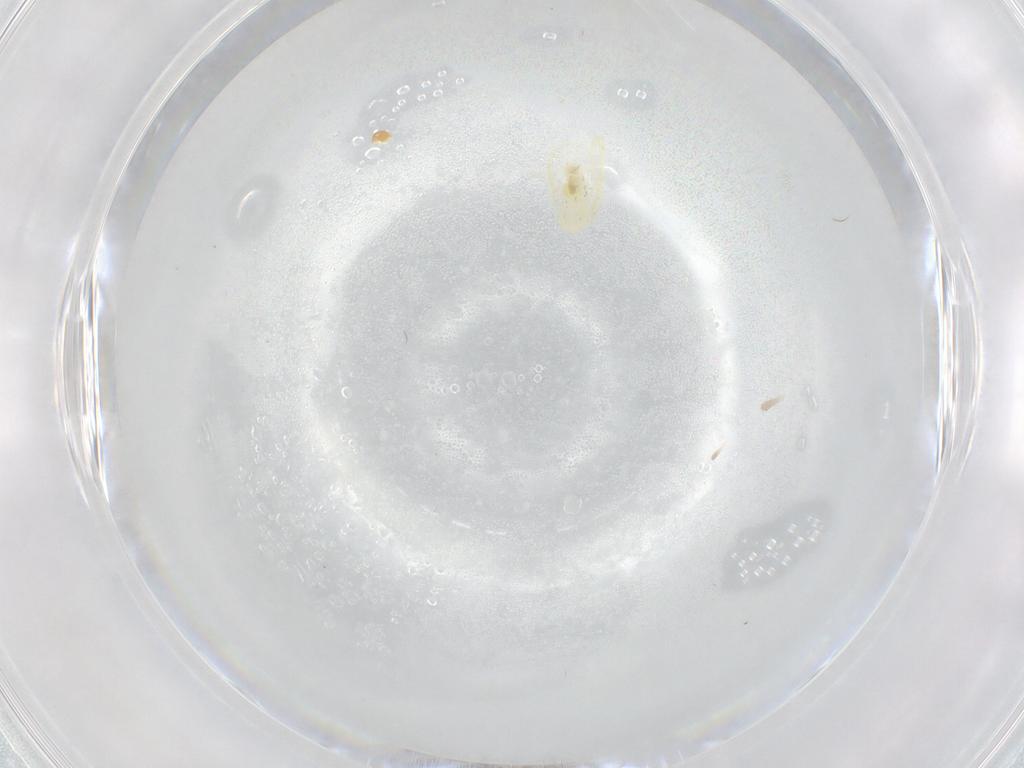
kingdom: Animalia
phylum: Arthropoda
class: Insecta
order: Hemiptera
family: Aleyrodidae
